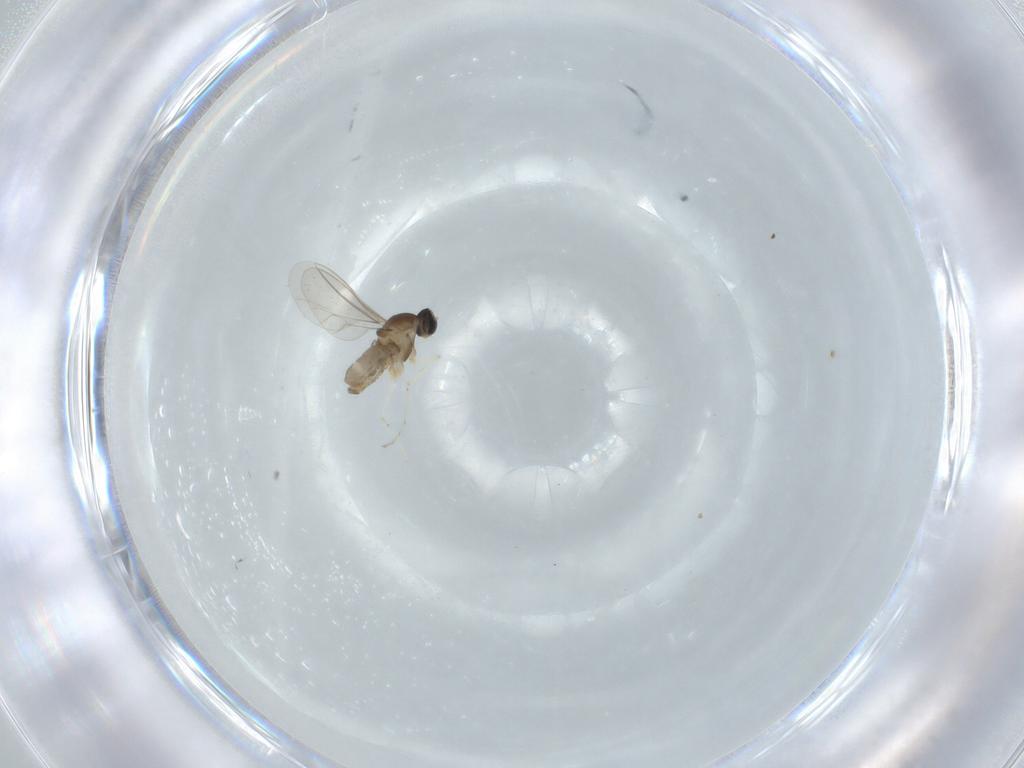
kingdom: Animalia
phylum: Arthropoda
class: Insecta
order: Diptera
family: Cecidomyiidae
